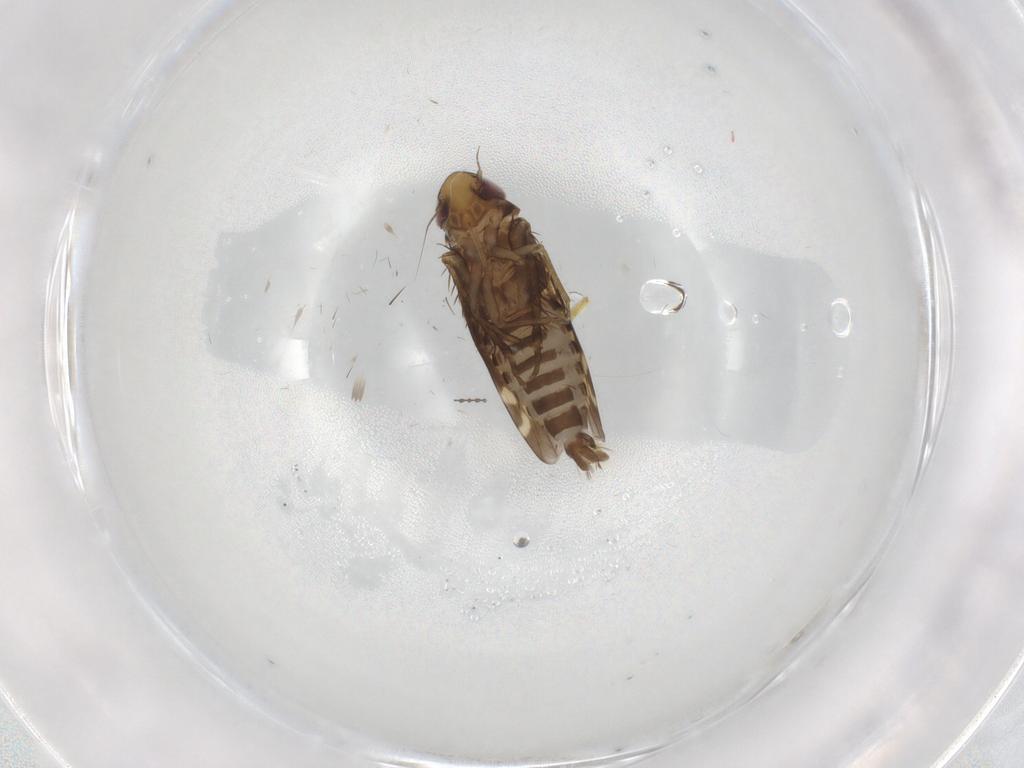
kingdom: Animalia
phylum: Arthropoda
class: Insecta
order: Hemiptera
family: Cicadellidae
